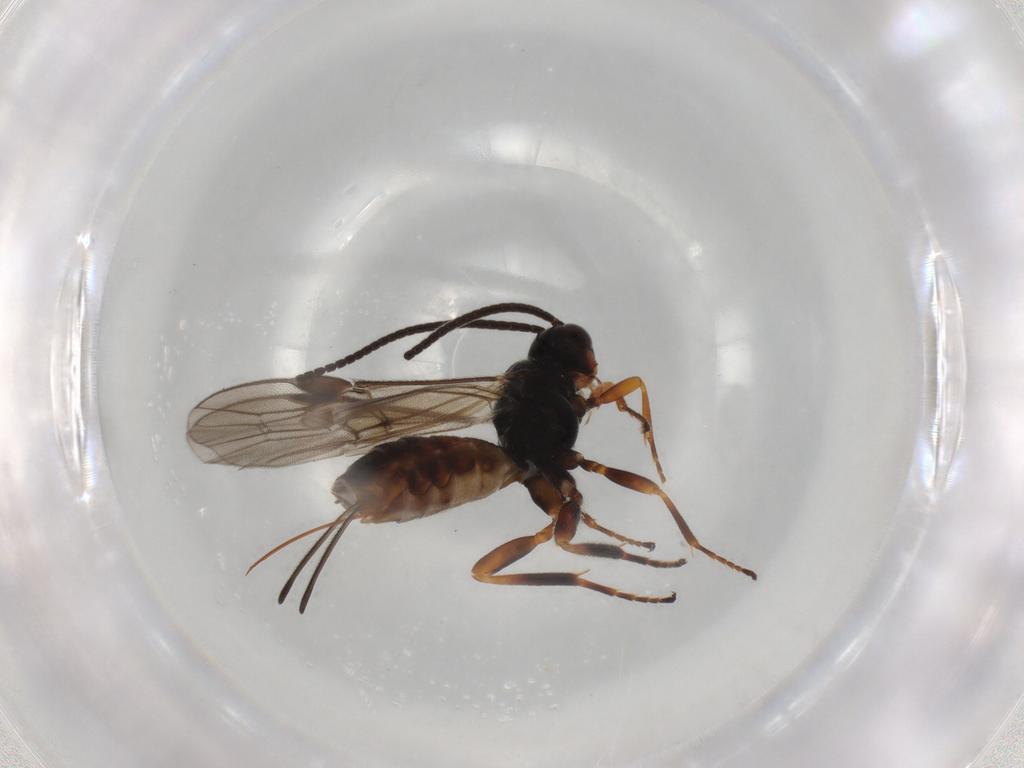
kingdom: Animalia
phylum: Arthropoda
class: Insecta
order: Hymenoptera
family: Braconidae
